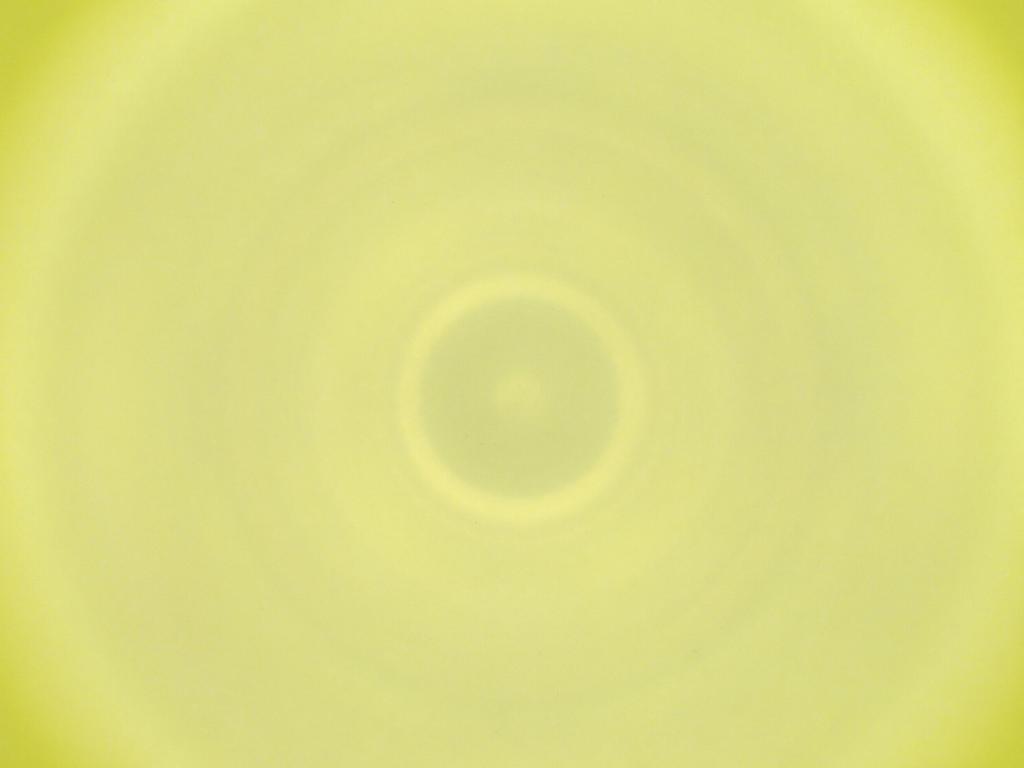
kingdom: Animalia
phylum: Arthropoda
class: Insecta
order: Diptera
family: Cecidomyiidae
